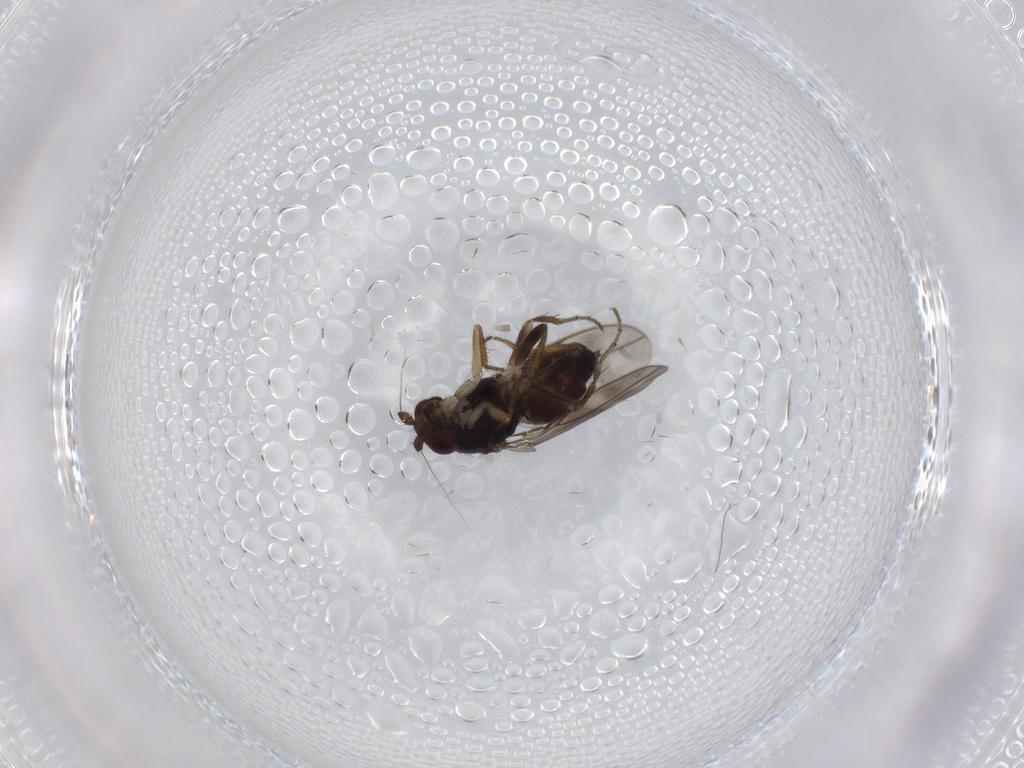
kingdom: Animalia
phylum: Arthropoda
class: Insecta
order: Diptera
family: Sphaeroceridae
